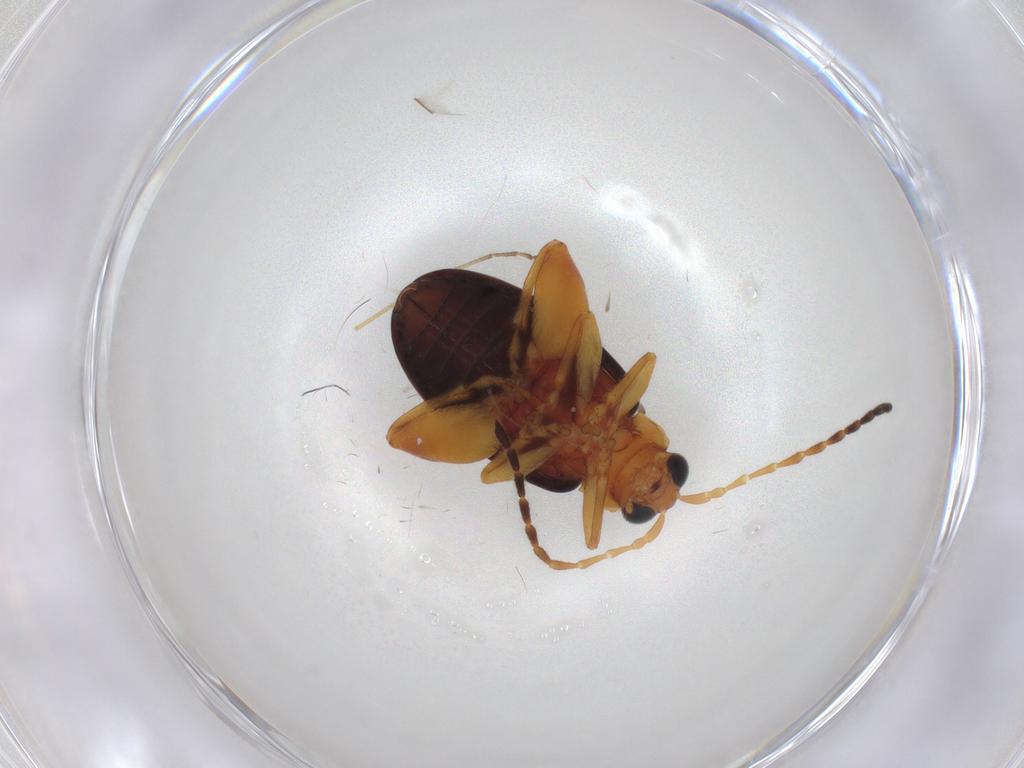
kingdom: Animalia
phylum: Arthropoda
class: Insecta
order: Coleoptera
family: Chrysomelidae
